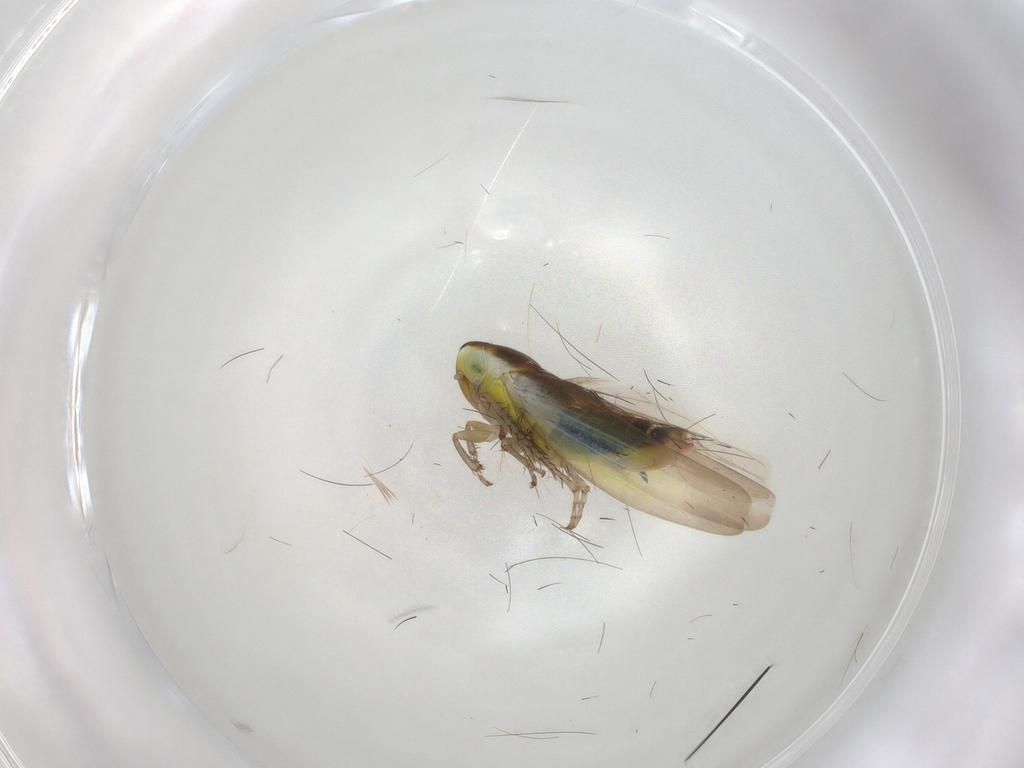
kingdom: Animalia
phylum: Arthropoda
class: Insecta
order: Hemiptera
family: Cicadellidae
